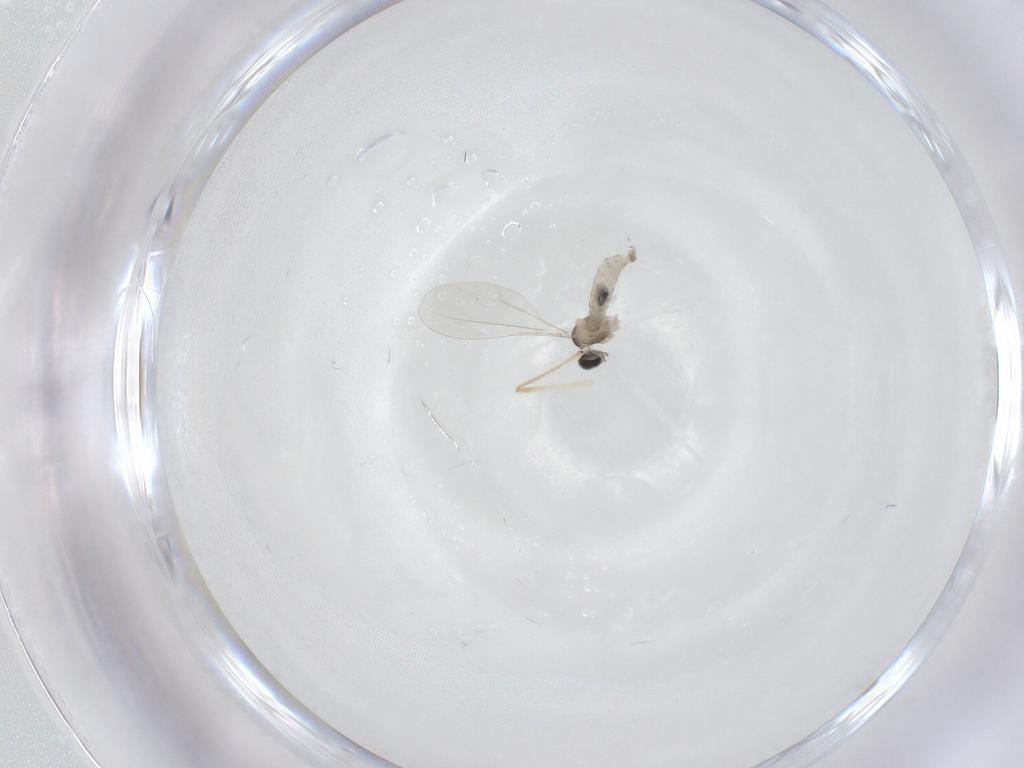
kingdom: Animalia
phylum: Arthropoda
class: Insecta
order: Diptera
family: Cecidomyiidae
